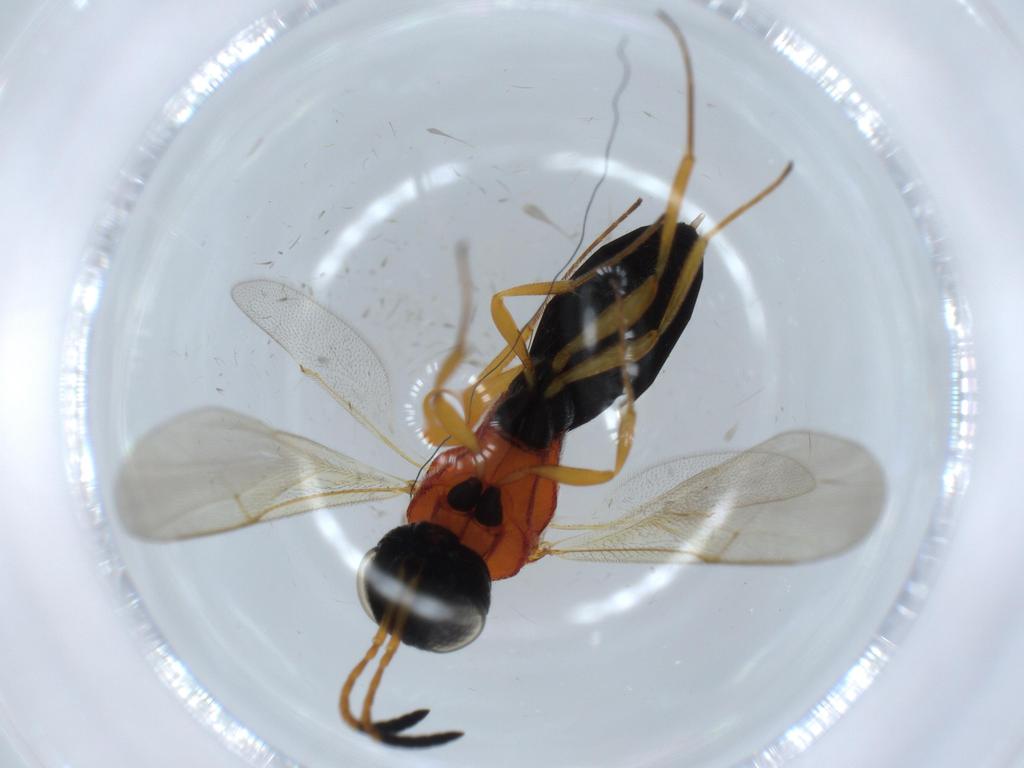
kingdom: Animalia
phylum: Arthropoda
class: Insecta
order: Hymenoptera
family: Scelionidae
